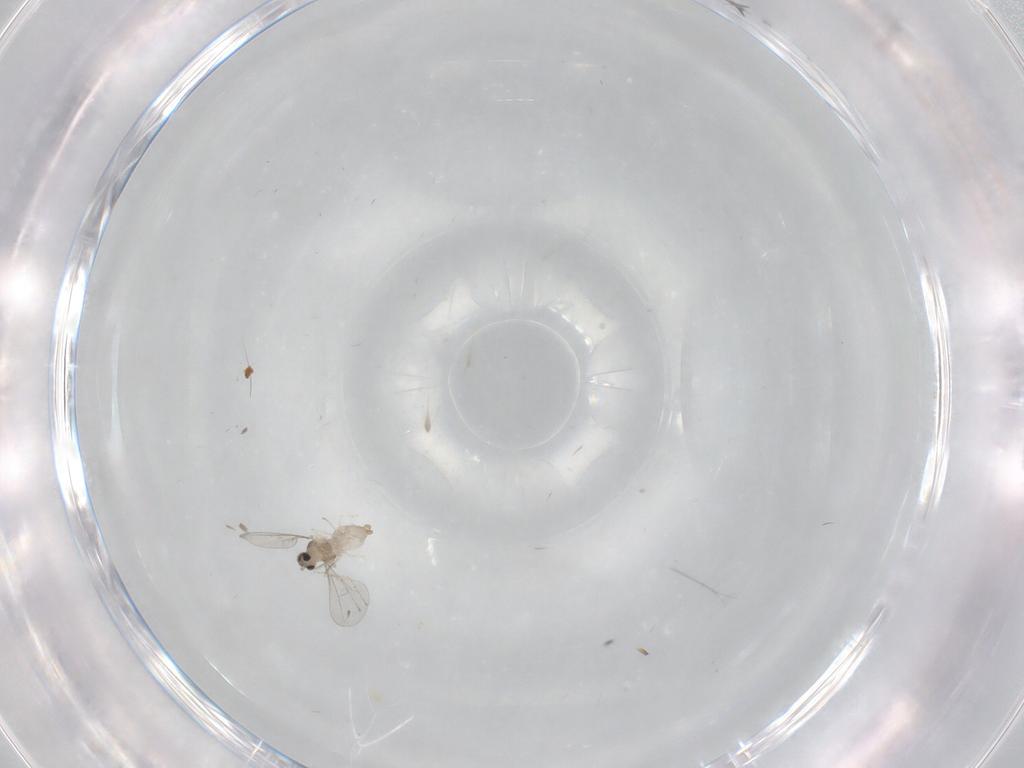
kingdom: Animalia
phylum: Arthropoda
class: Insecta
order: Diptera
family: Cecidomyiidae
